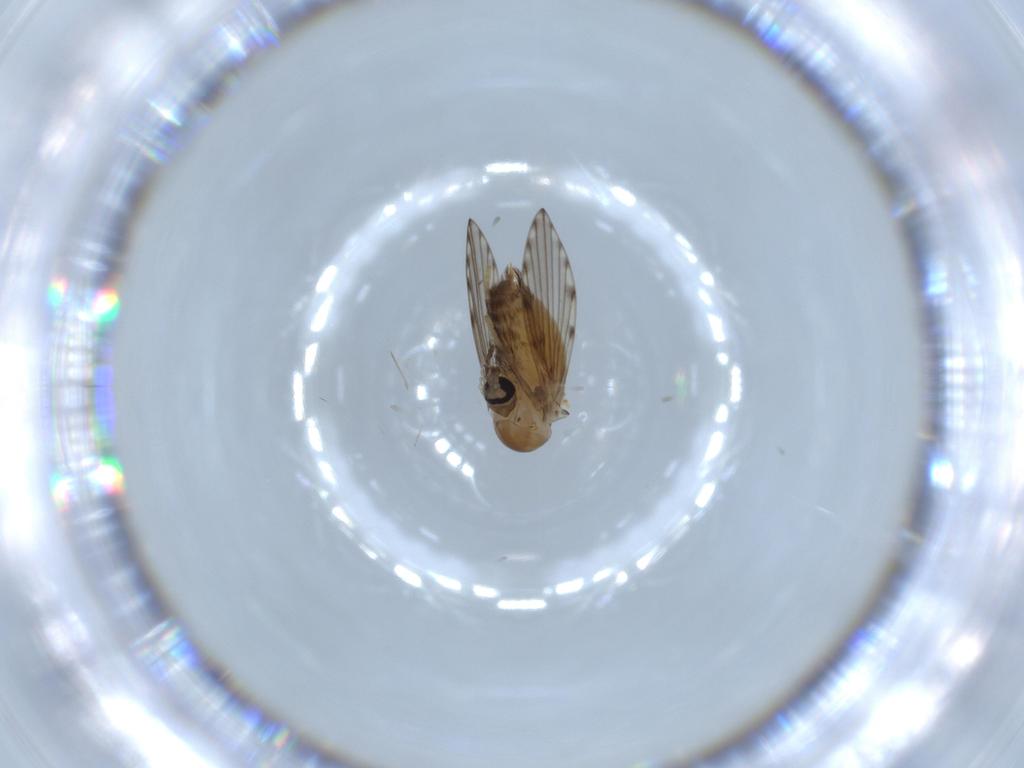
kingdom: Animalia
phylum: Arthropoda
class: Insecta
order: Diptera
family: Psychodidae
